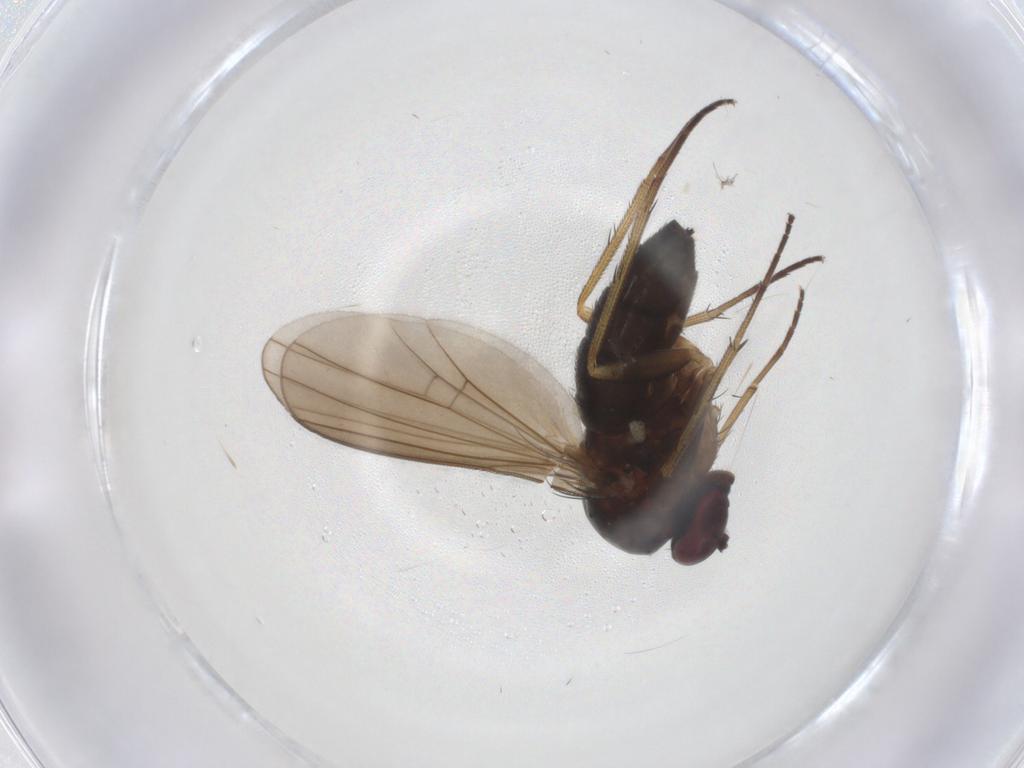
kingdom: Animalia
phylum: Arthropoda
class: Insecta
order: Diptera
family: Dolichopodidae
